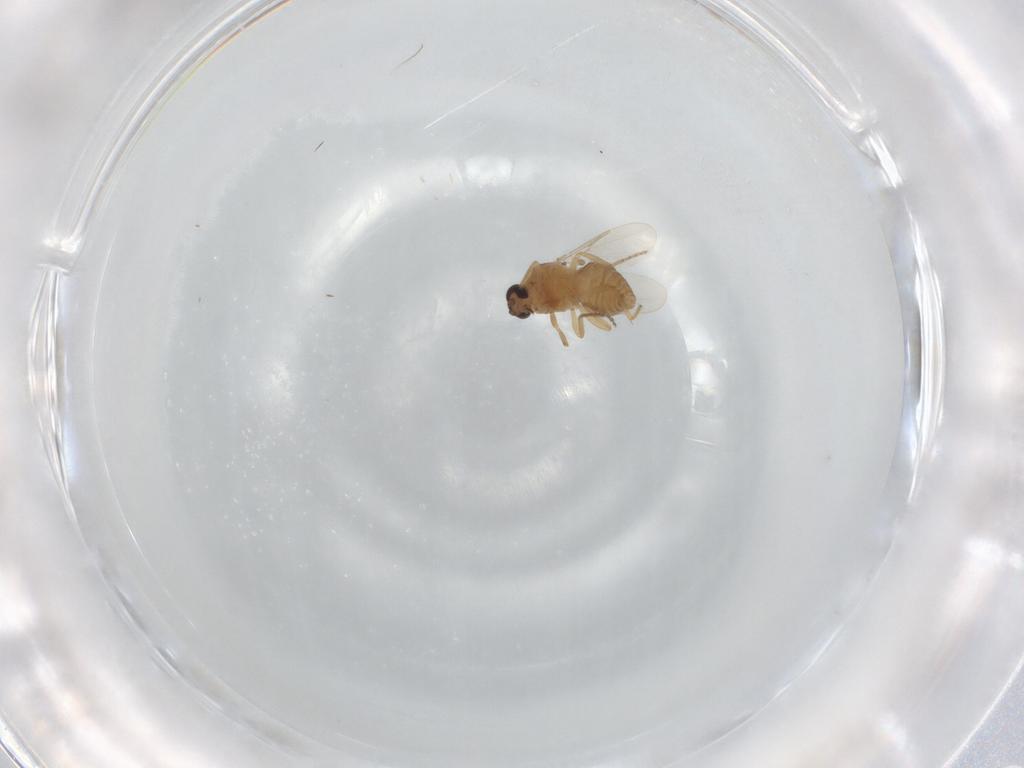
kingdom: Animalia
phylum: Arthropoda
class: Insecta
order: Diptera
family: Ceratopogonidae
